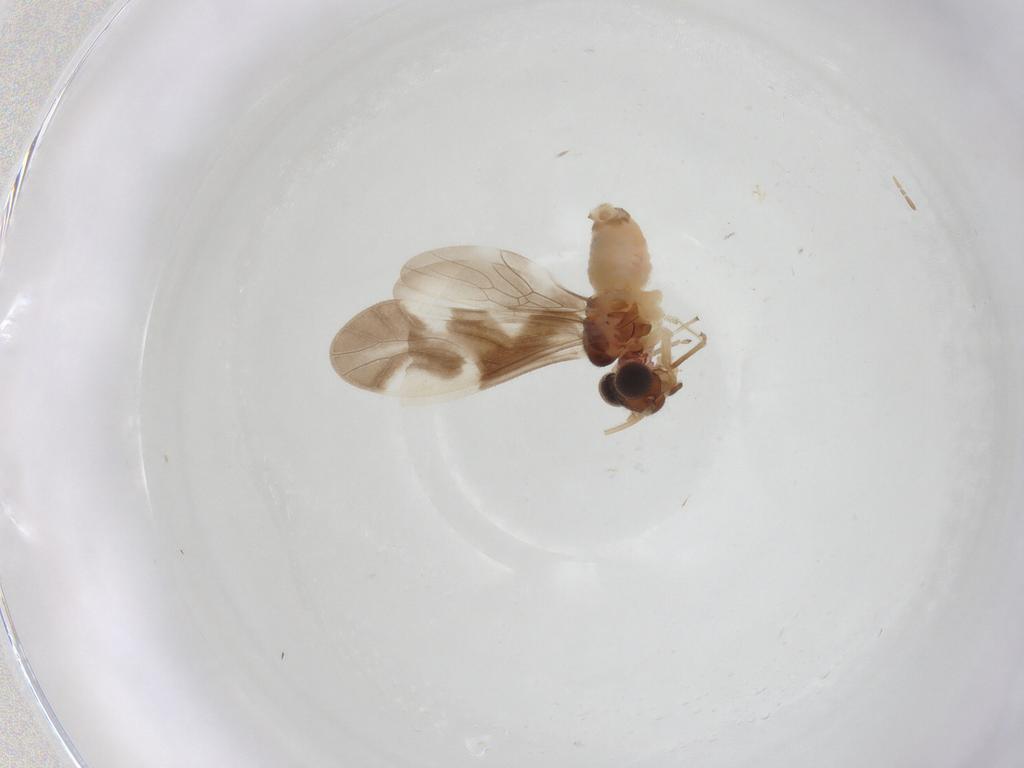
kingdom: Animalia
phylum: Arthropoda
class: Insecta
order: Psocodea
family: Caeciliusidae
